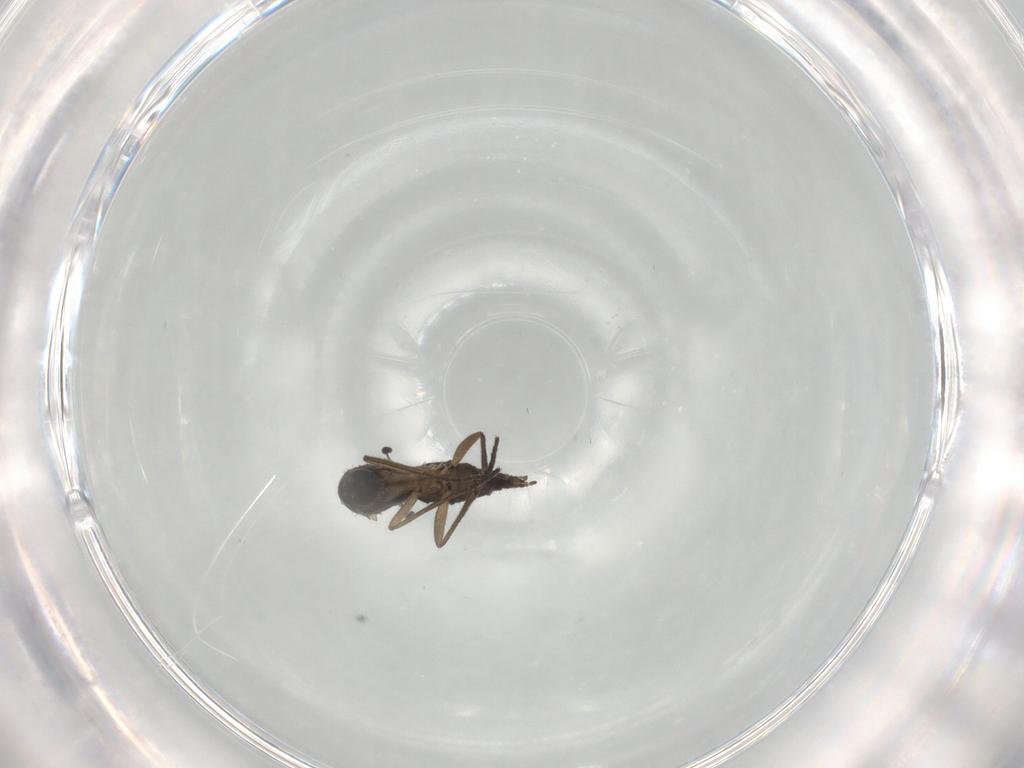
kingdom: Animalia
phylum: Arthropoda
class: Insecta
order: Diptera
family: Sciaridae
